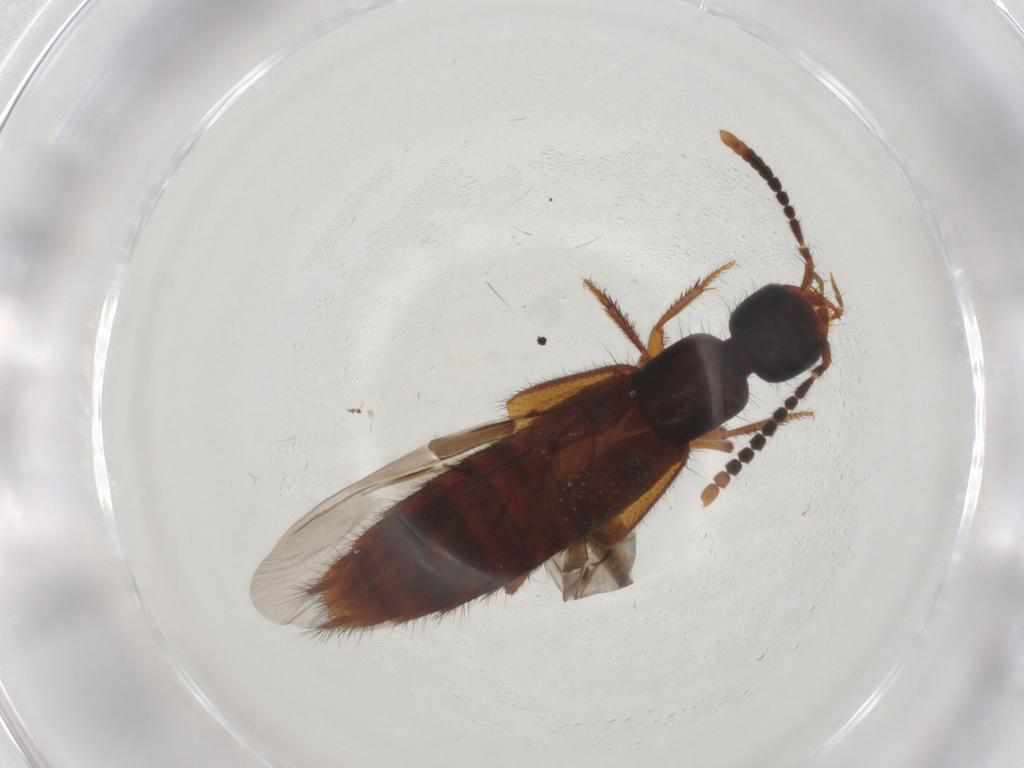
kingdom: Animalia
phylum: Arthropoda
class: Insecta
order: Coleoptera
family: Staphylinidae
